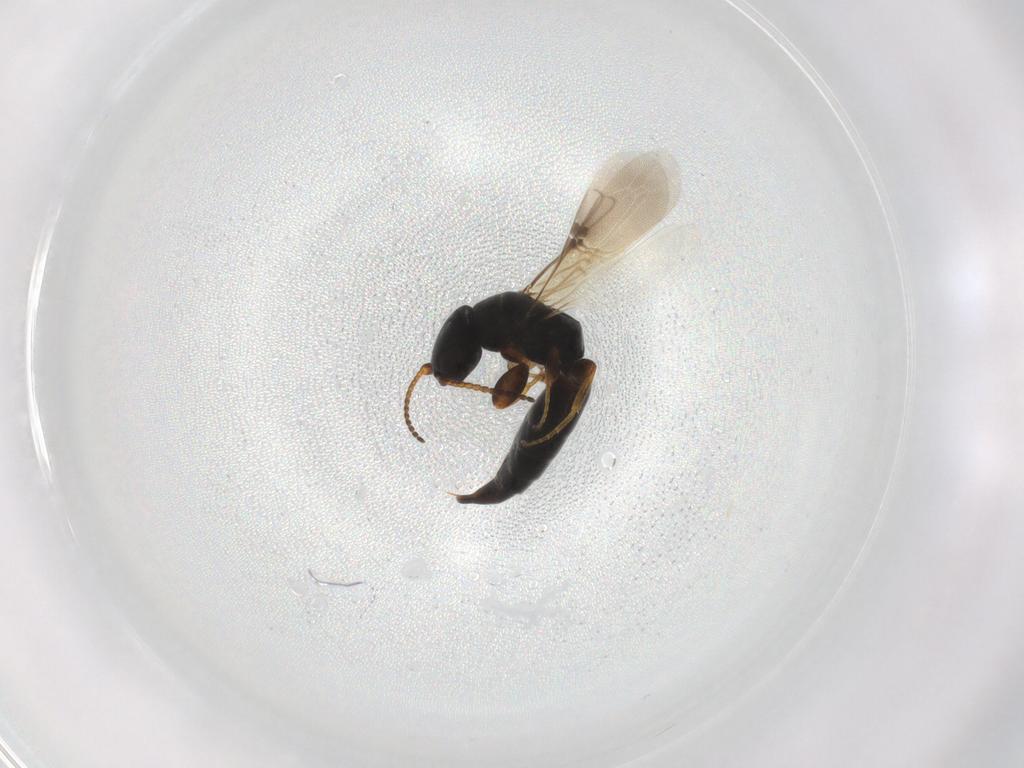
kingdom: Animalia
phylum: Arthropoda
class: Insecta
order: Hymenoptera
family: Bethylidae
